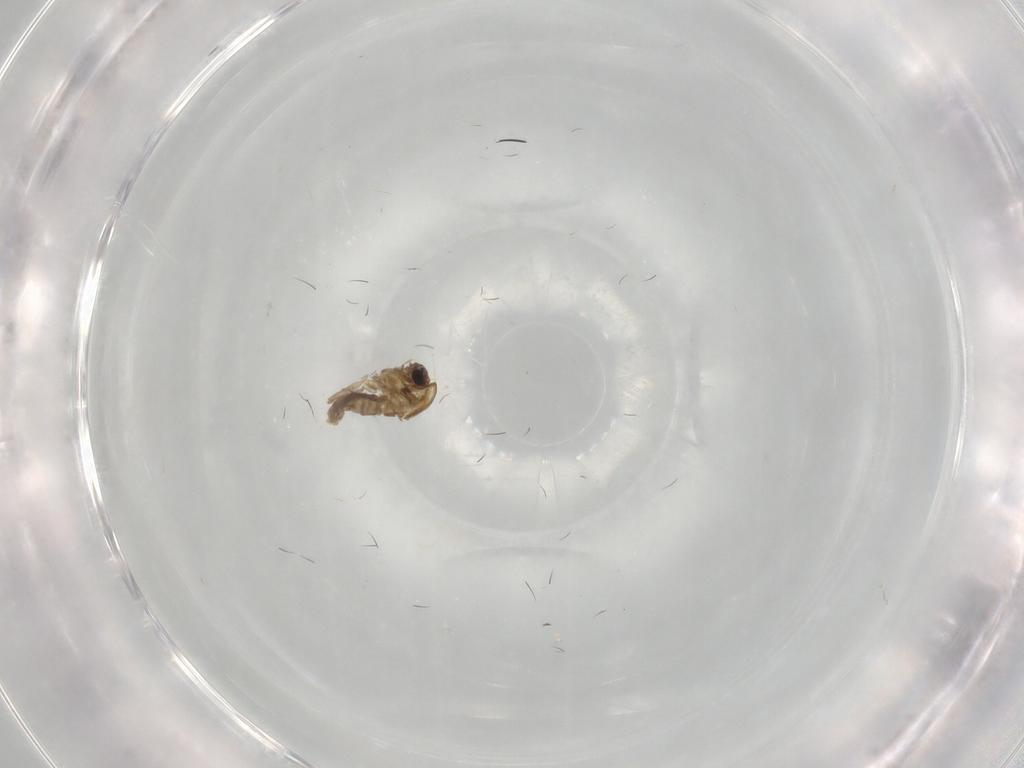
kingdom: Animalia
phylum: Arthropoda
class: Insecta
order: Diptera
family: Dolichopodidae
